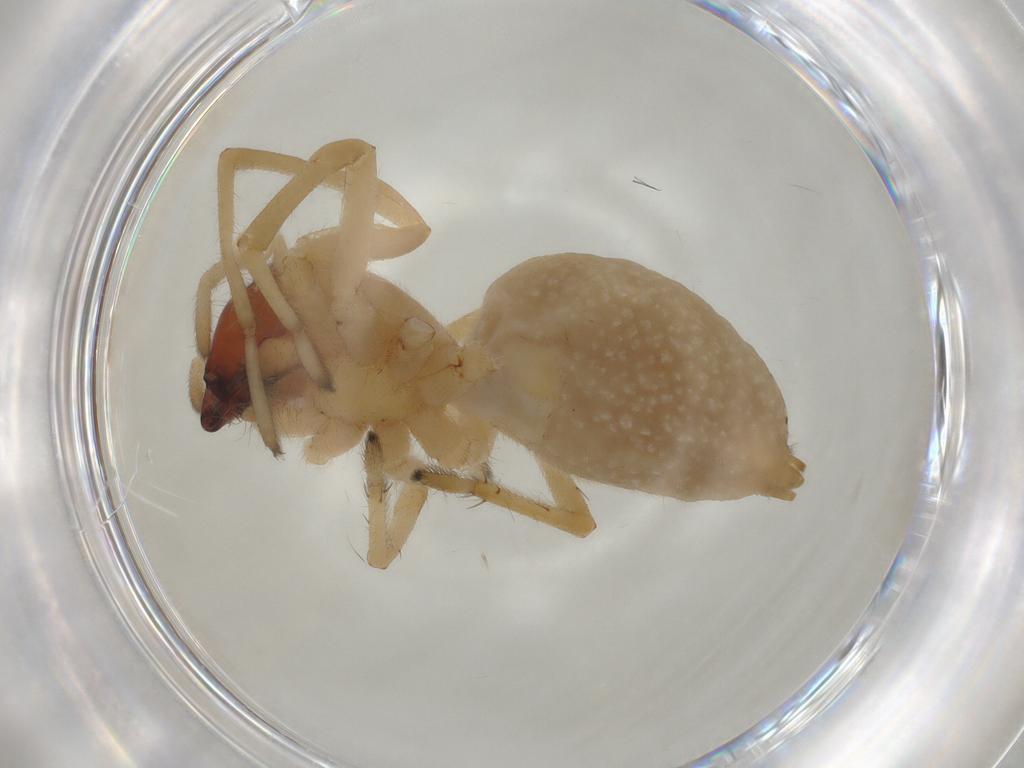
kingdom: Animalia
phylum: Arthropoda
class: Arachnida
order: Araneae
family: Cheiracanthiidae
